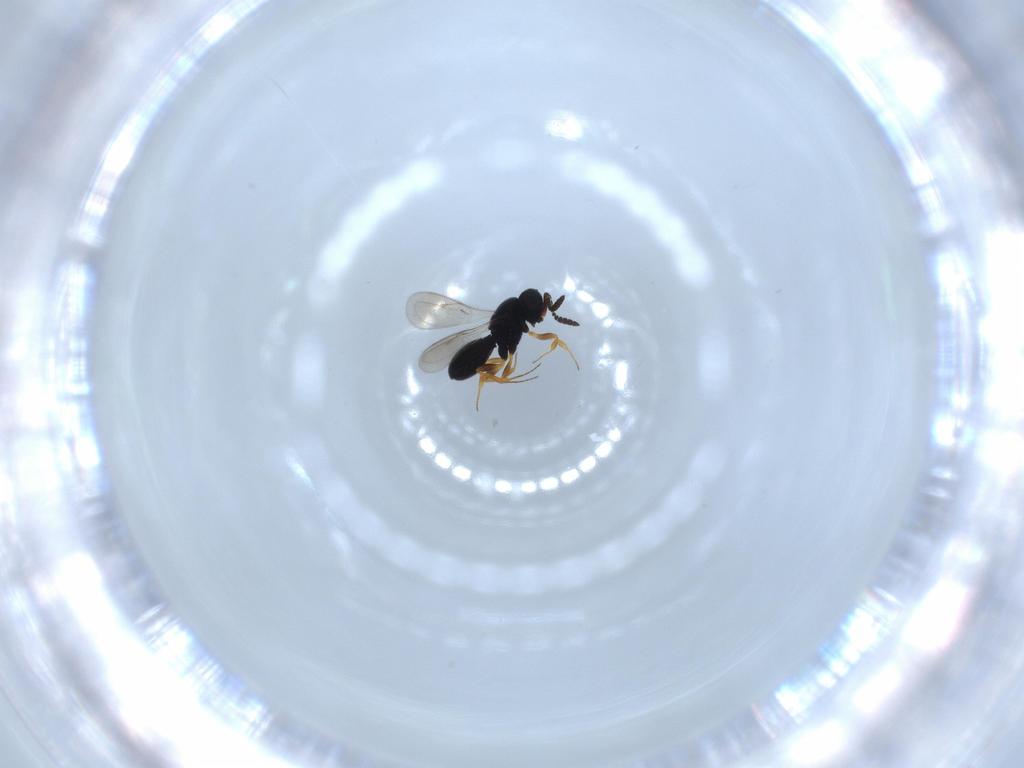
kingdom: Animalia
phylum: Arthropoda
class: Insecta
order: Hymenoptera
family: Scelionidae
